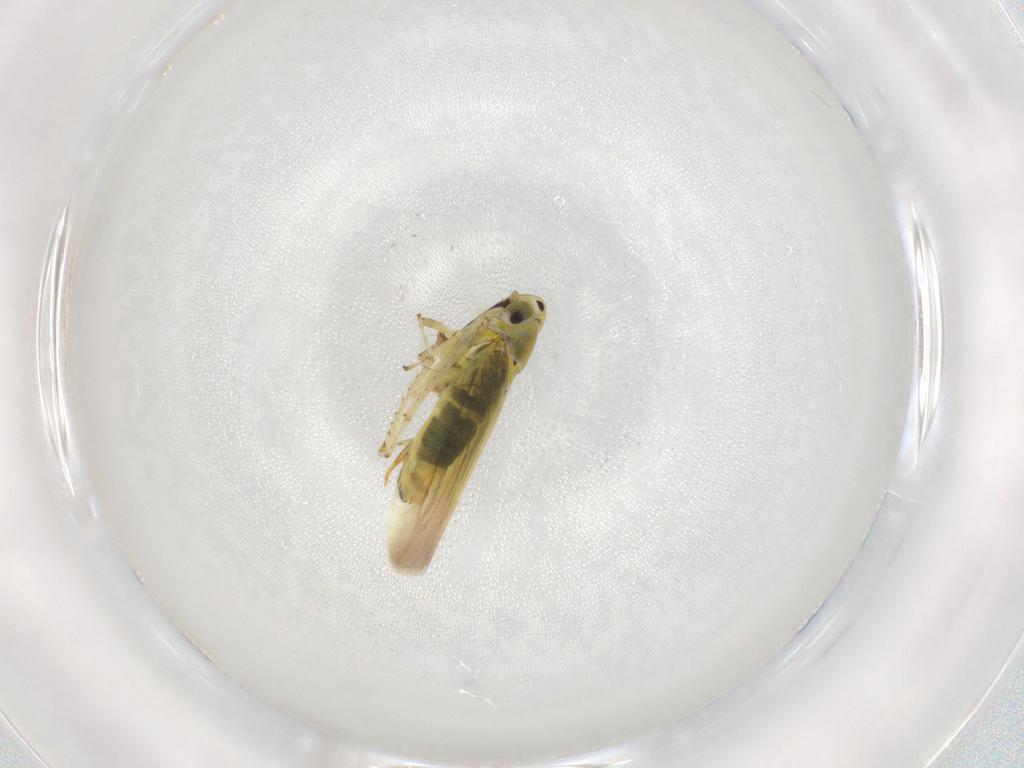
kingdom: Animalia
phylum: Arthropoda
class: Insecta
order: Hemiptera
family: Cicadellidae
